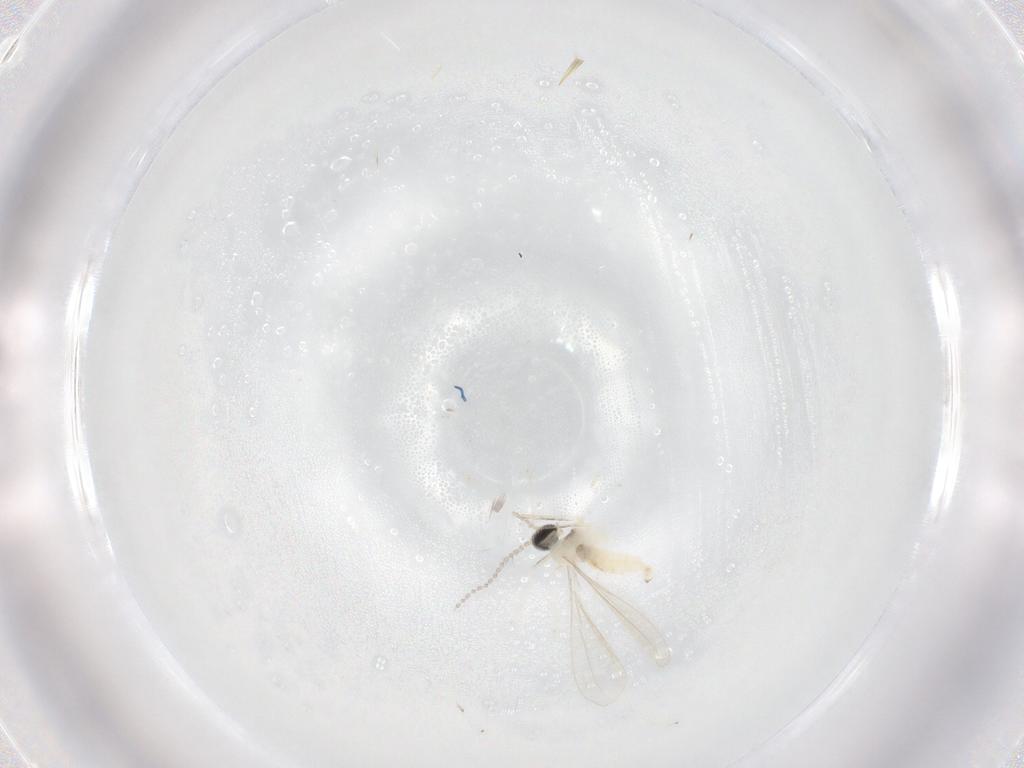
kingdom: Animalia
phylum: Arthropoda
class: Insecta
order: Diptera
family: Cecidomyiidae
